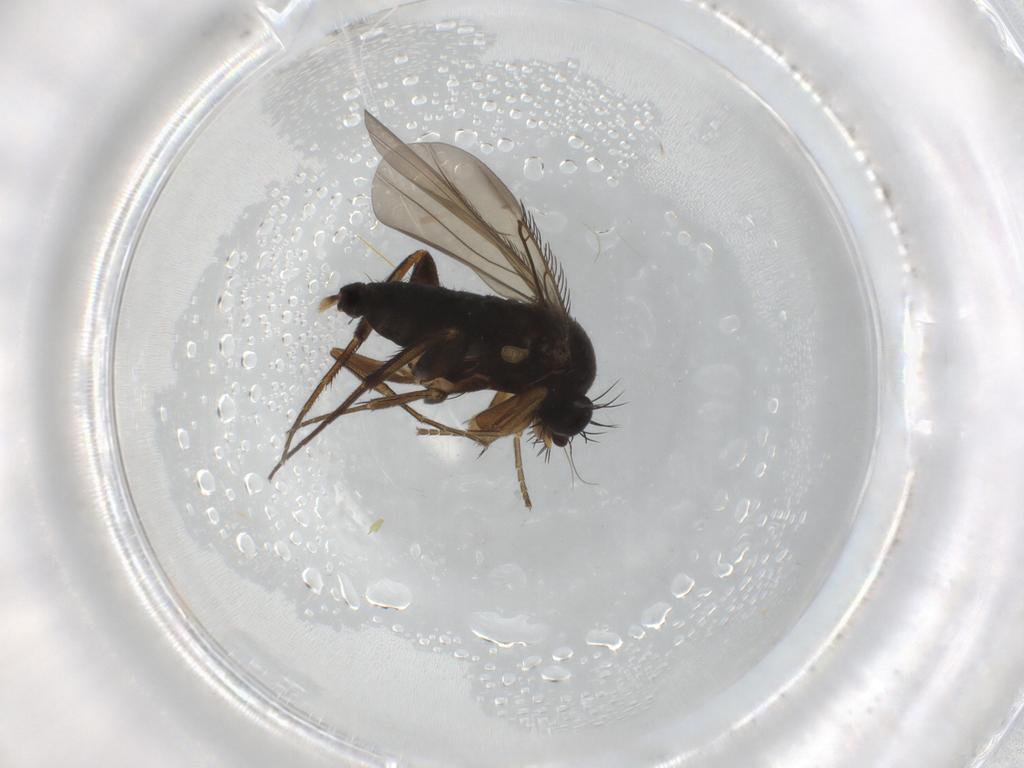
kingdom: Animalia
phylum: Arthropoda
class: Insecta
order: Diptera
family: Phoridae
